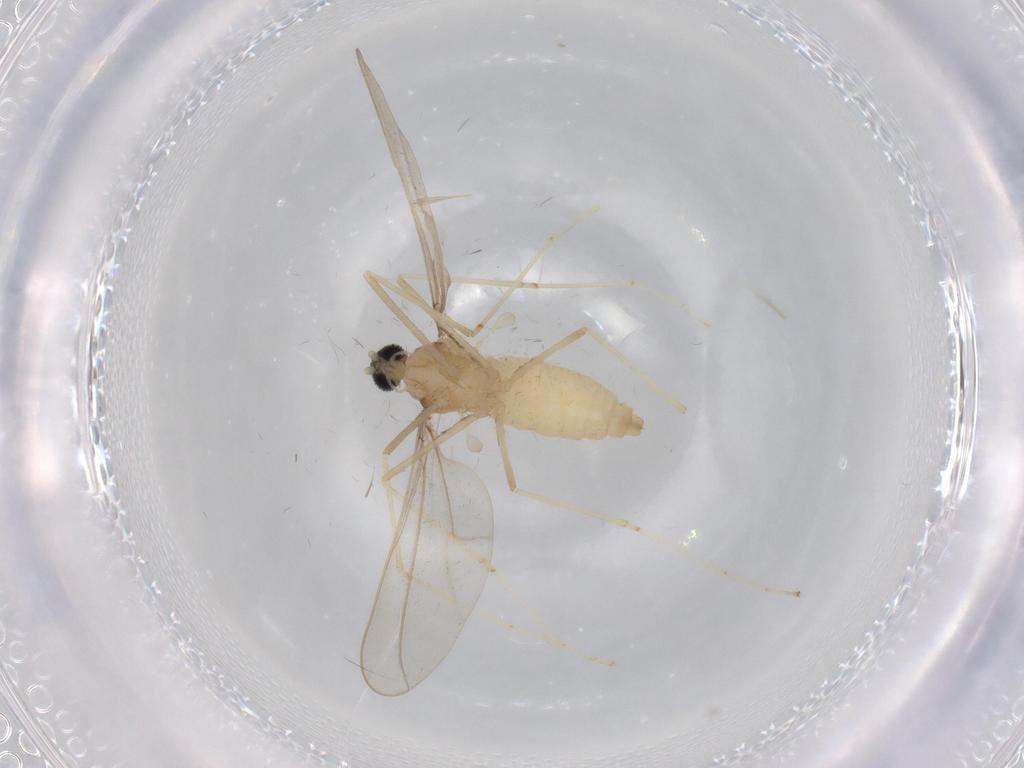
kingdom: Animalia
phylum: Arthropoda
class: Insecta
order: Diptera
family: Cecidomyiidae
